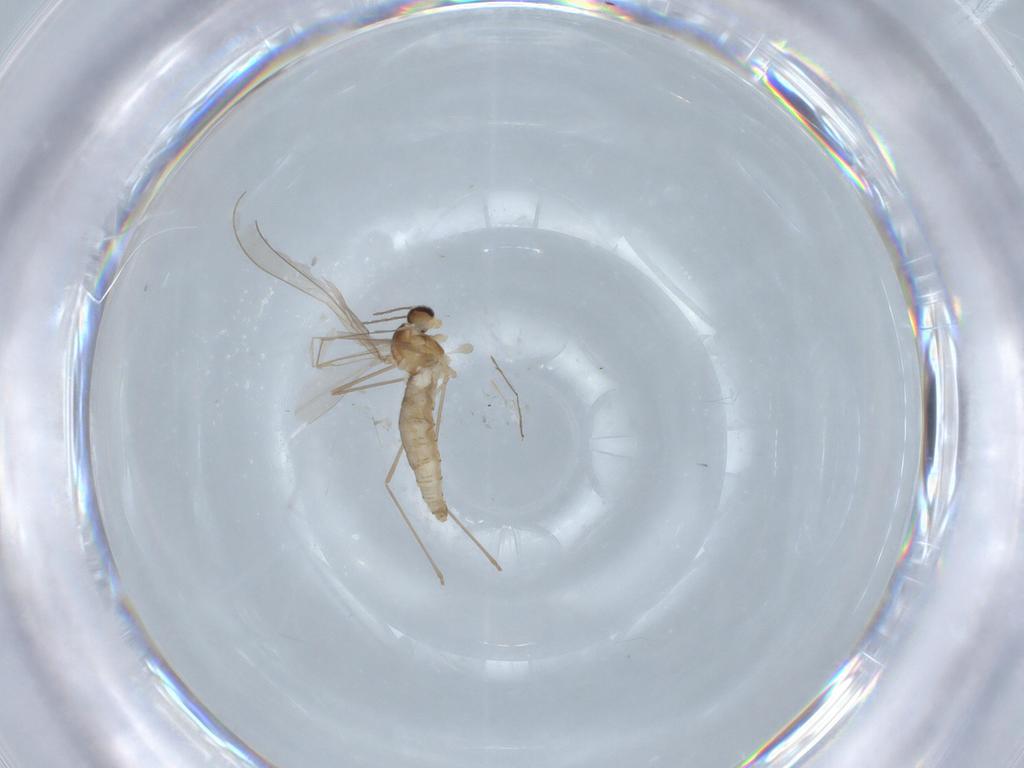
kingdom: Animalia
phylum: Arthropoda
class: Insecta
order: Diptera
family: Cecidomyiidae
